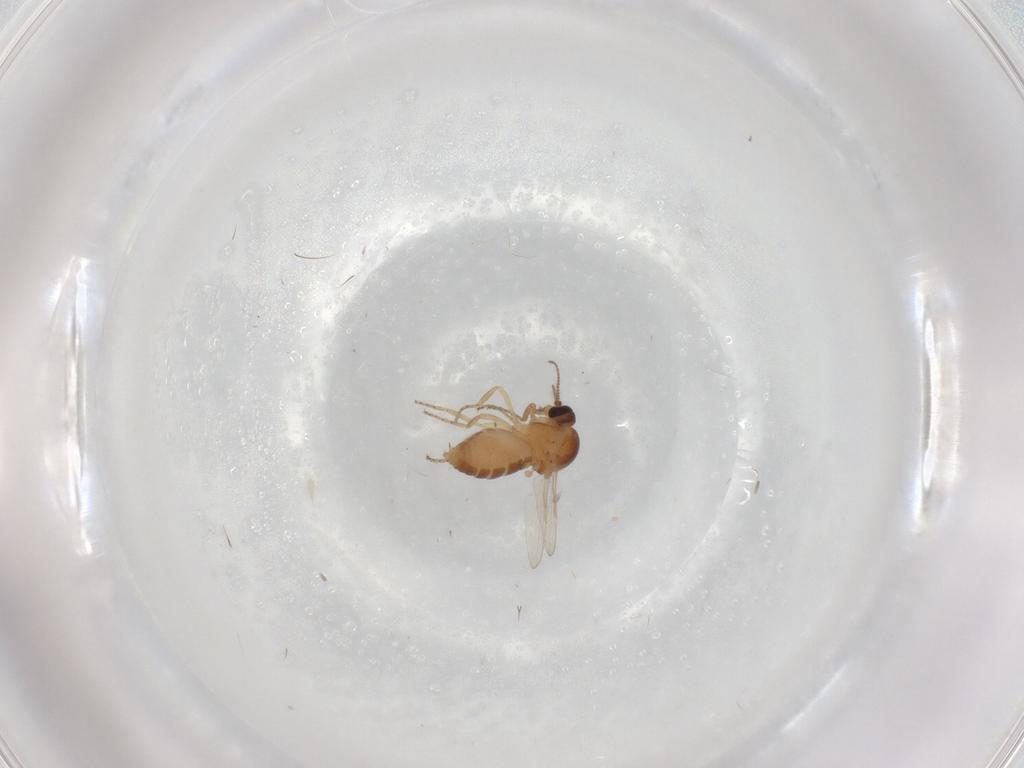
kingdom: Animalia
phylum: Arthropoda
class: Insecta
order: Diptera
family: Ceratopogonidae
